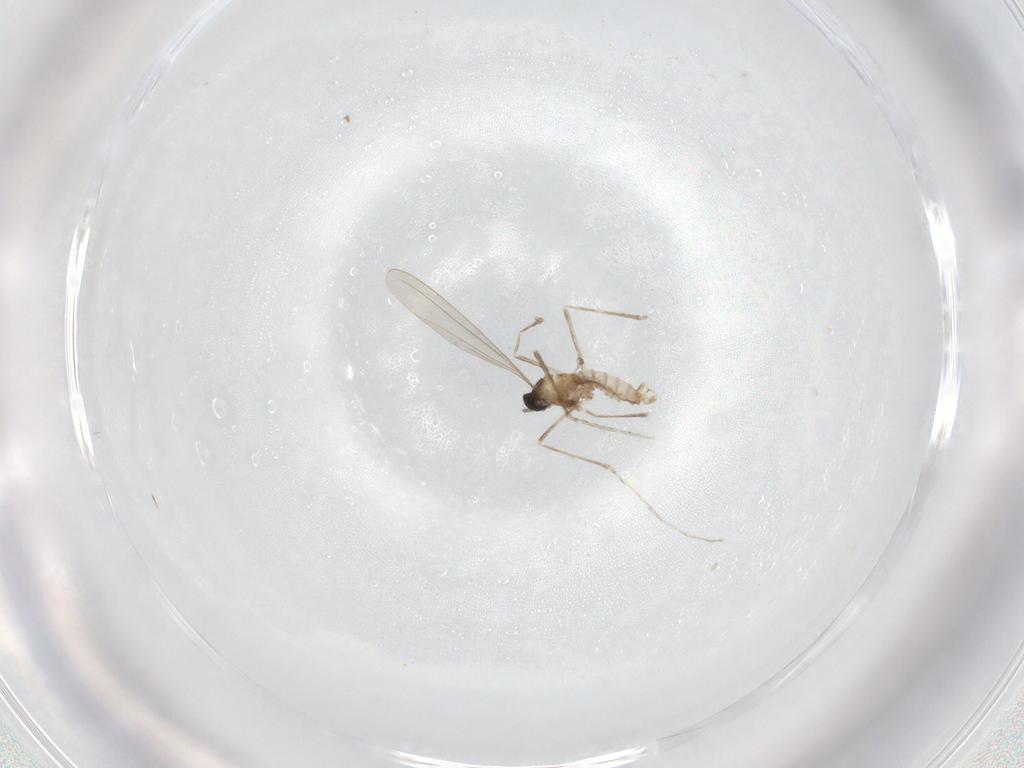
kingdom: Animalia
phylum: Arthropoda
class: Insecta
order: Diptera
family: Cecidomyiidae
